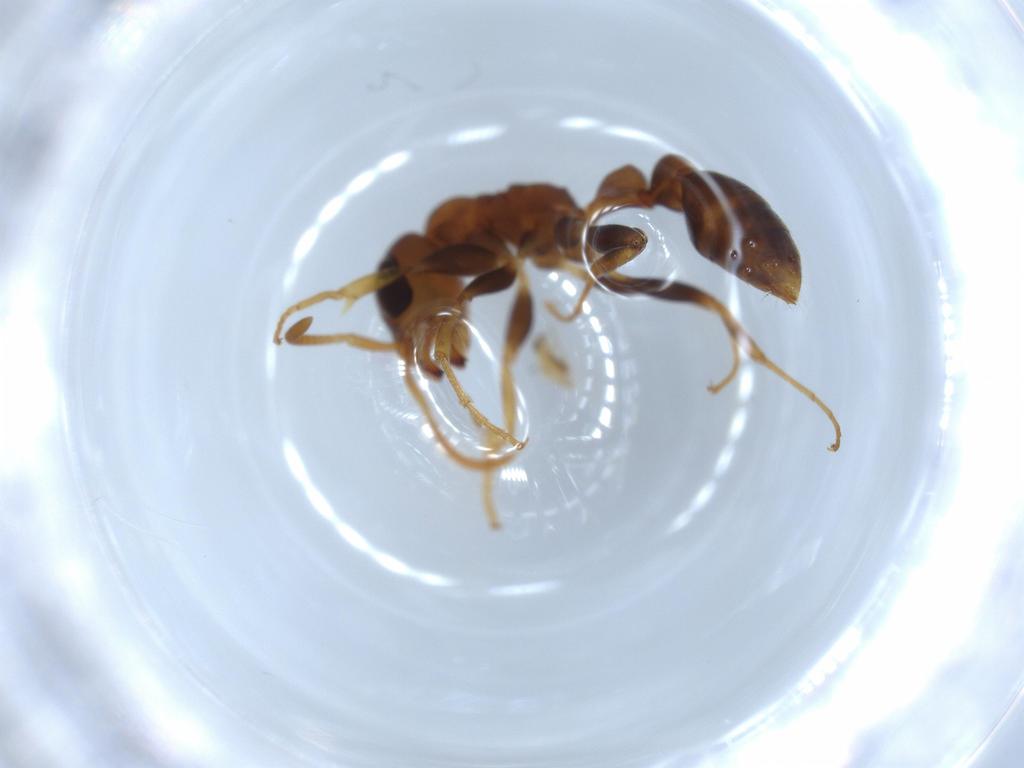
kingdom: Animalia
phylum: Arthropoda
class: Insecta
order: Hymenoptera
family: Formicidae
